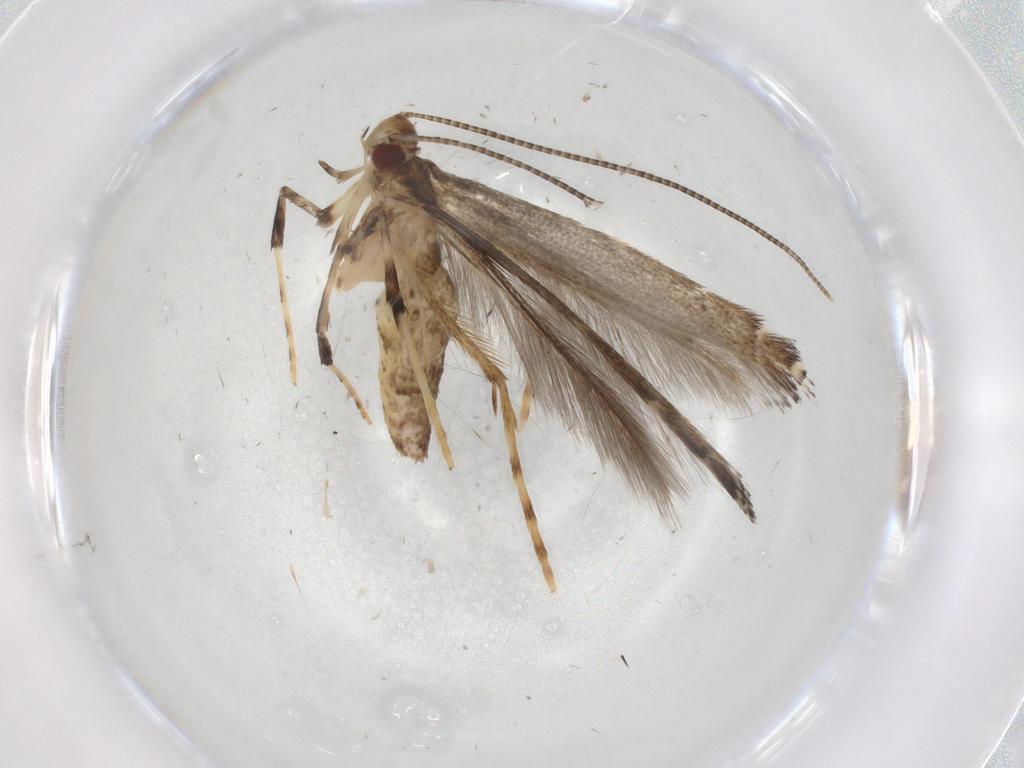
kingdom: Animalia
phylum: Arthropoda
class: Insecta
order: Lepidoptera
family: Gracillariidae
